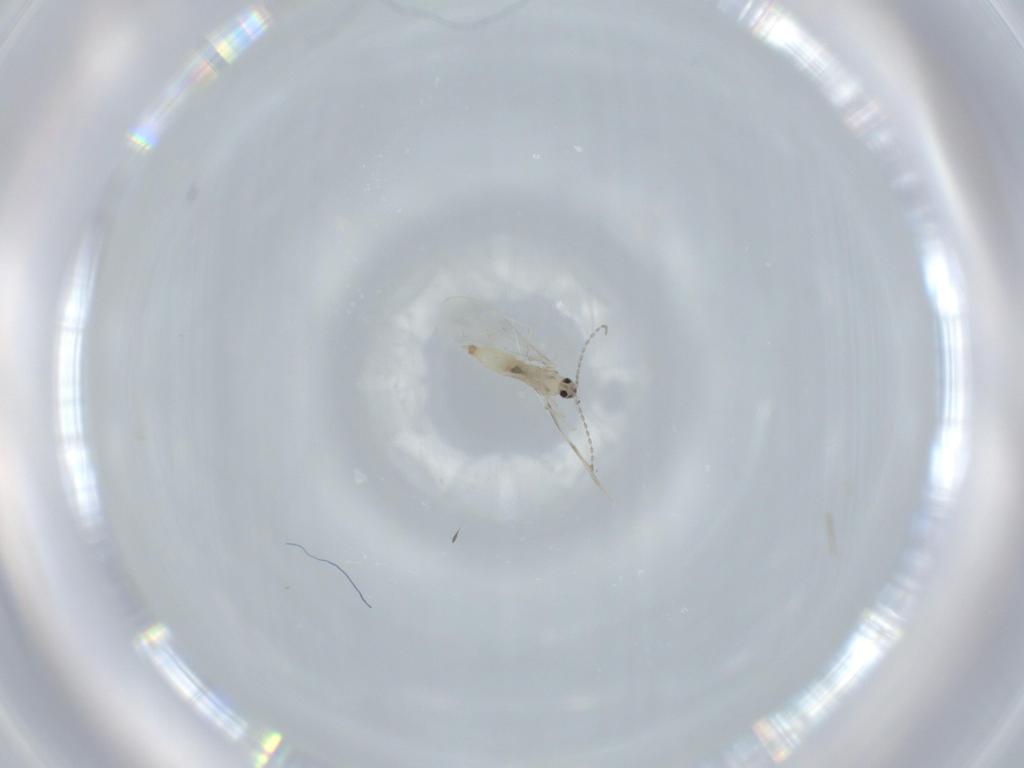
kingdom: Animalia
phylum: Arthropoda
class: Insecta
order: Diptera
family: Cecidomyiidae
